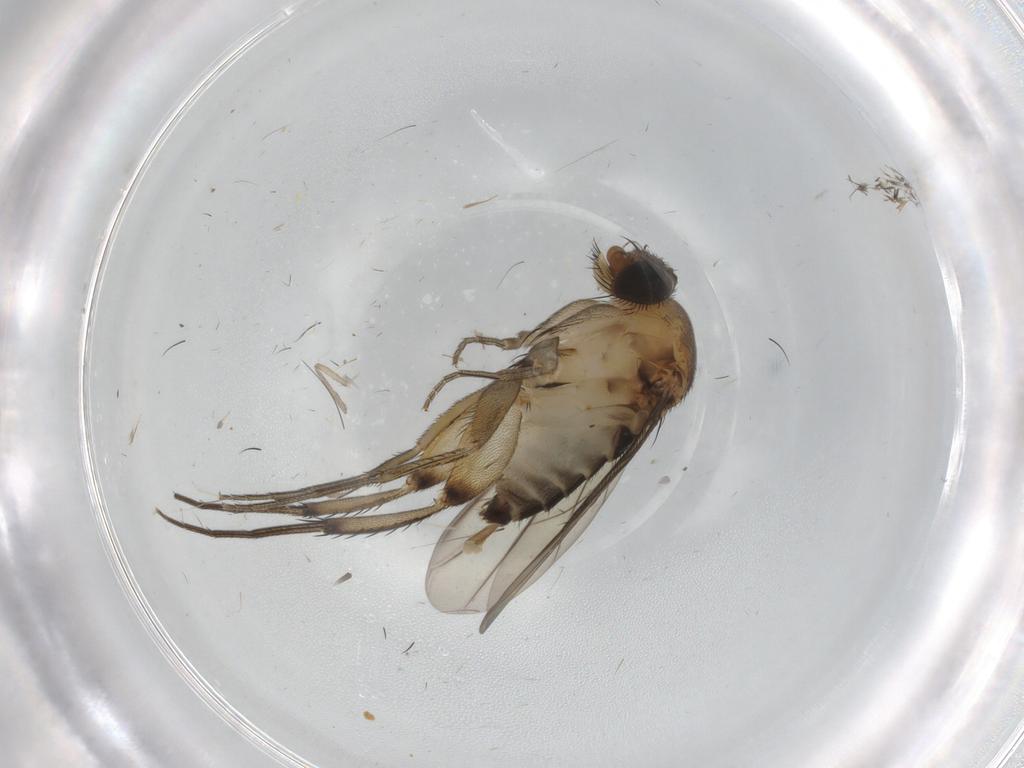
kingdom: Animalia
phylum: Arthropoda
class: Insecta
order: Diptera
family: Phoridae
